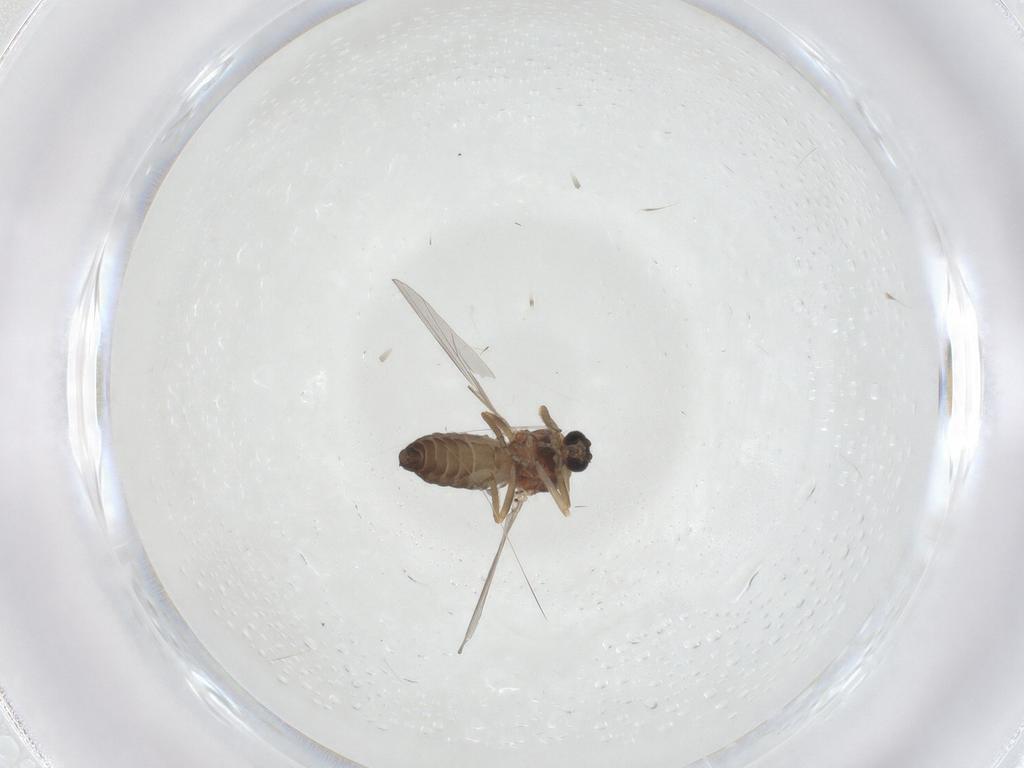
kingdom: Animalia
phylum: Arthropoda
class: Insecta
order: Diptera
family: Ceratopogonidae
